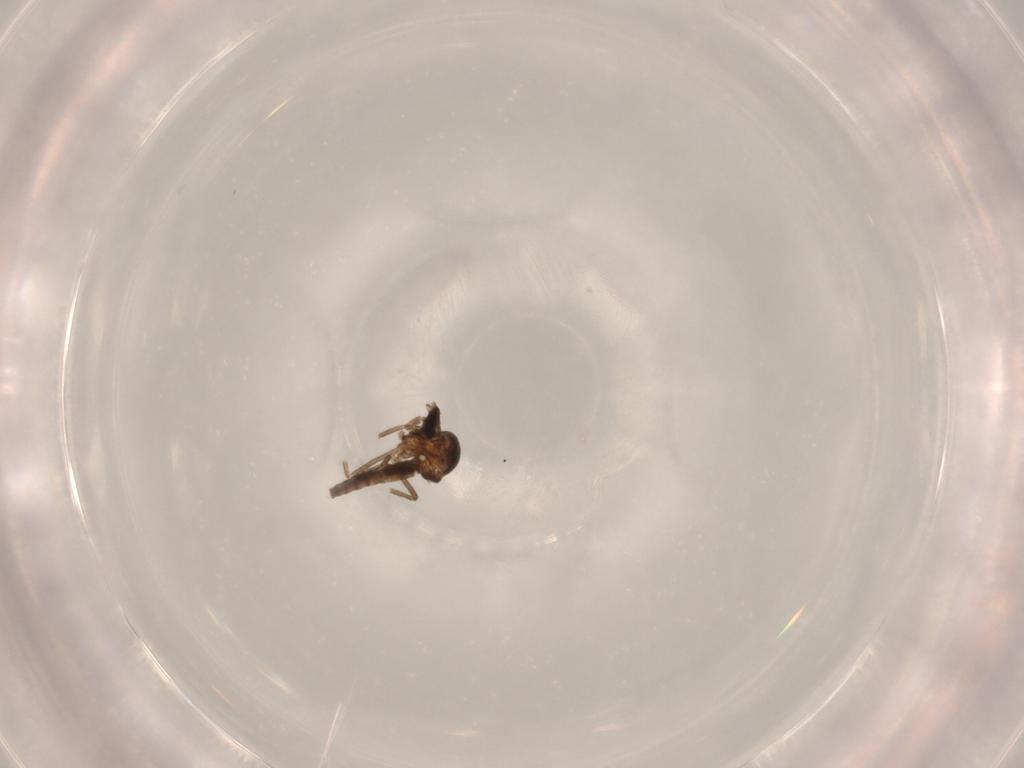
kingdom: Animalia
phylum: Arthropoda
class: Insecta
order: Diptera
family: Ceratopogonidae
